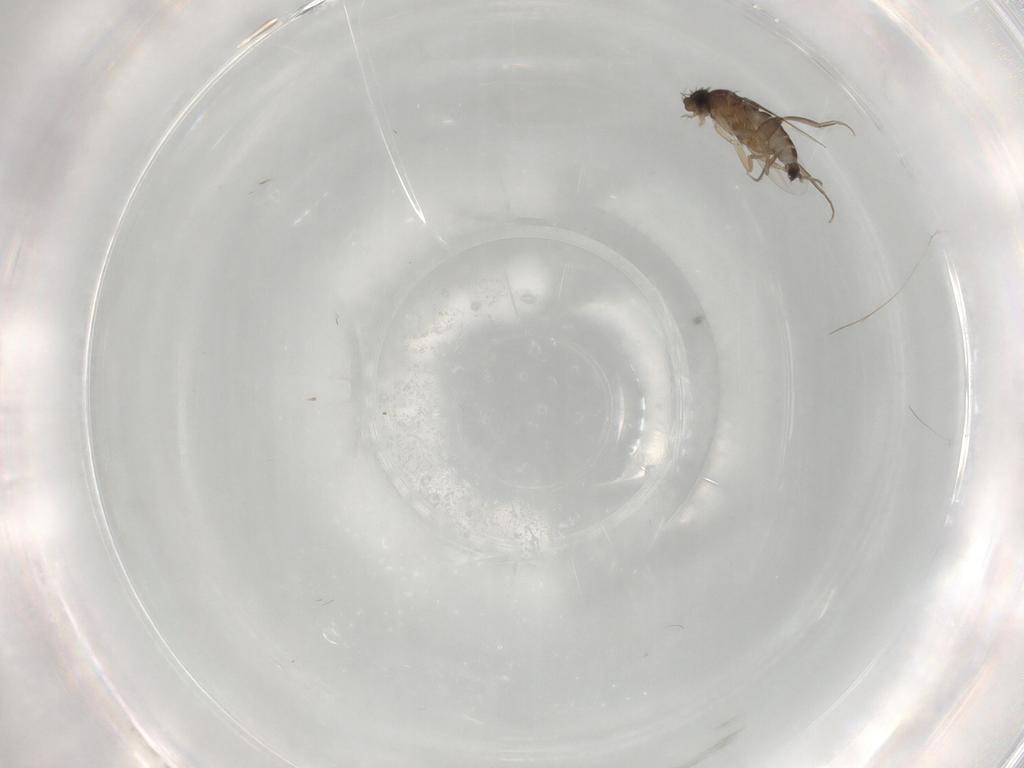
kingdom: Animalia
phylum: Arthropoda
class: Insecta
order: Diptera
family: Phoridae
